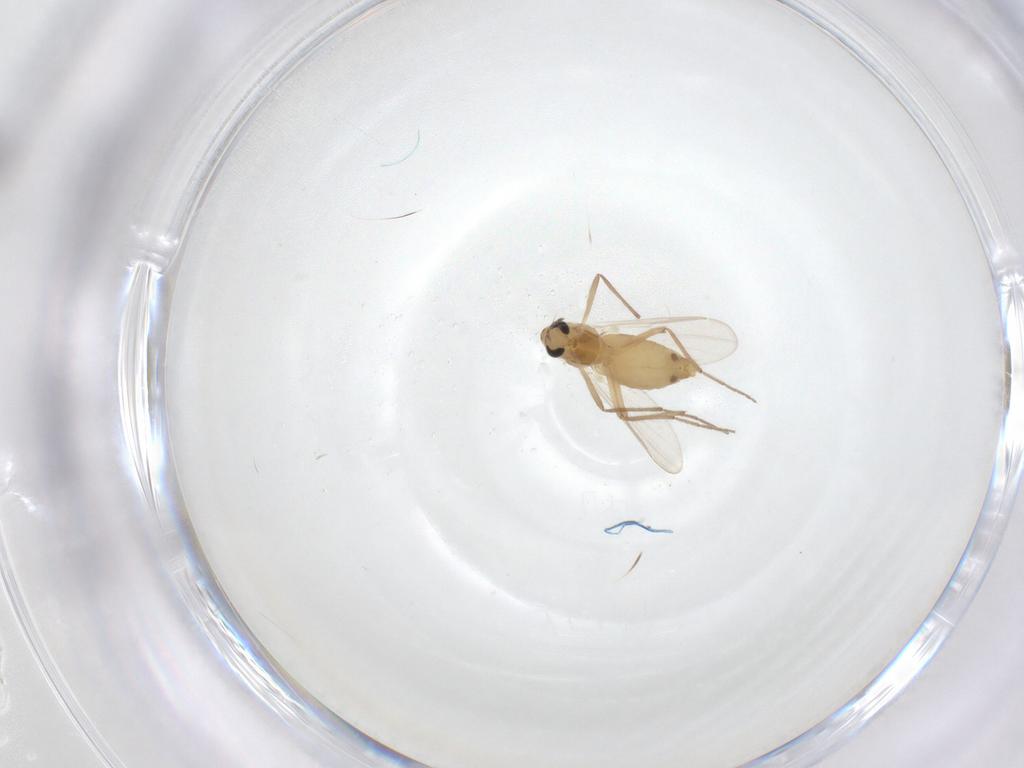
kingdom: Animalia
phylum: Arthropoda
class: Insecta
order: Diptera
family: Chironomidae
